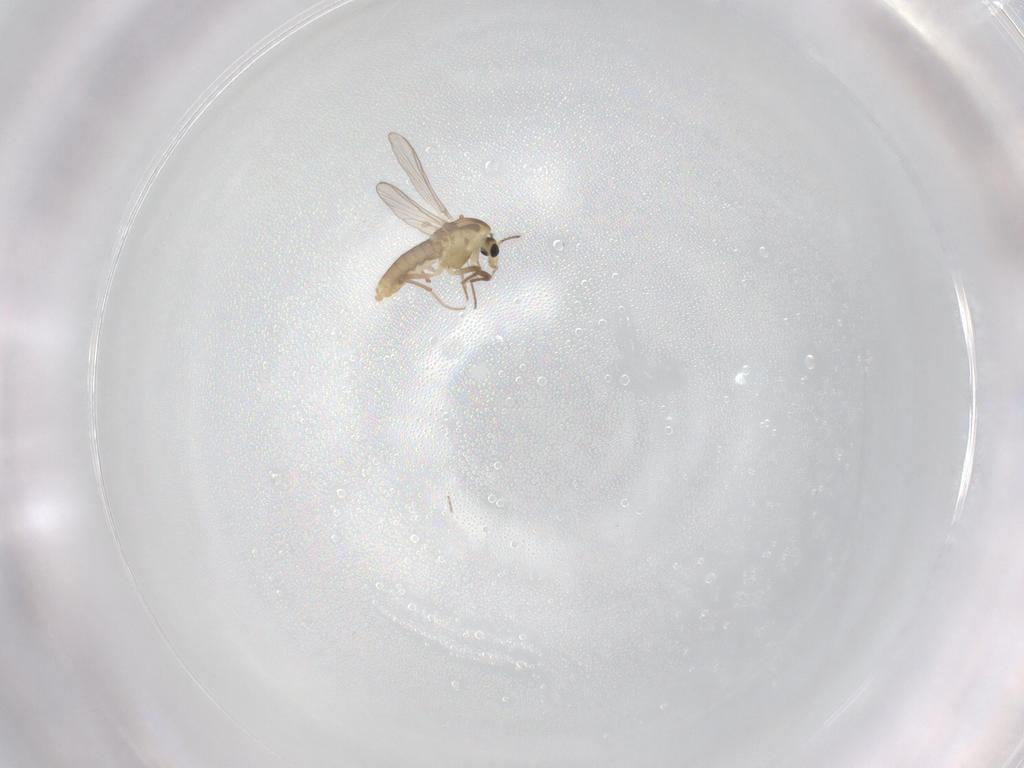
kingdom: Animalia
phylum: Arthropoda
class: Insecta
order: Diptera
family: Chironomidae
